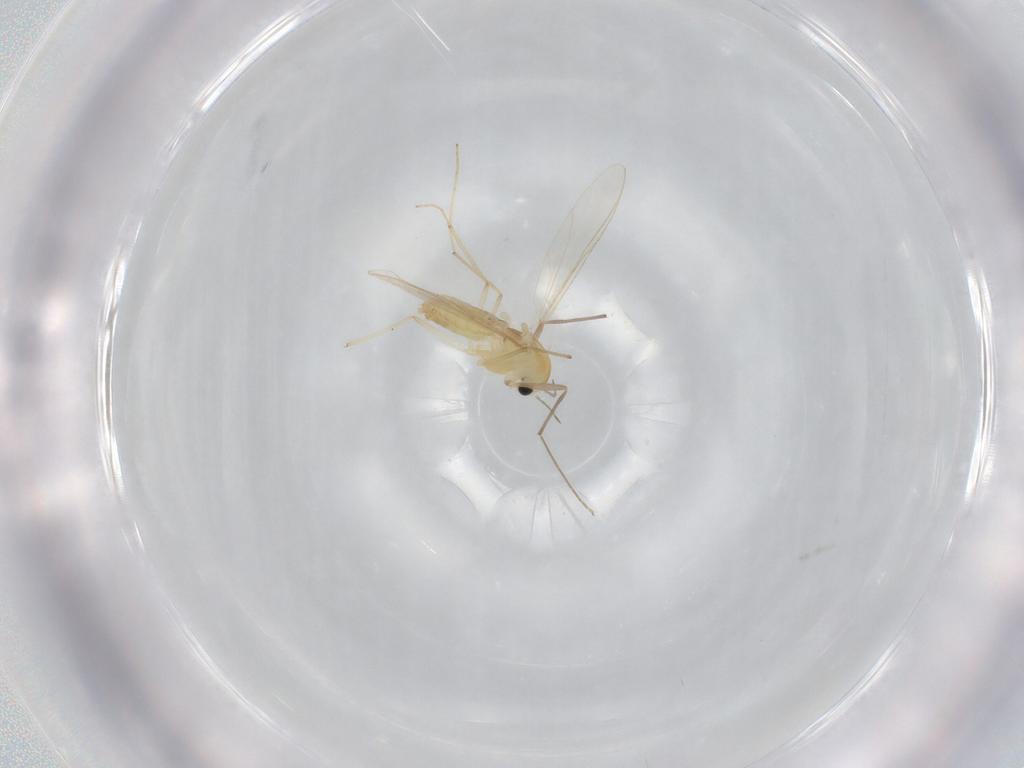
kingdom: Animalia
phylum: Arthropoda
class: Insecta
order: Diptera
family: Chironomidae
